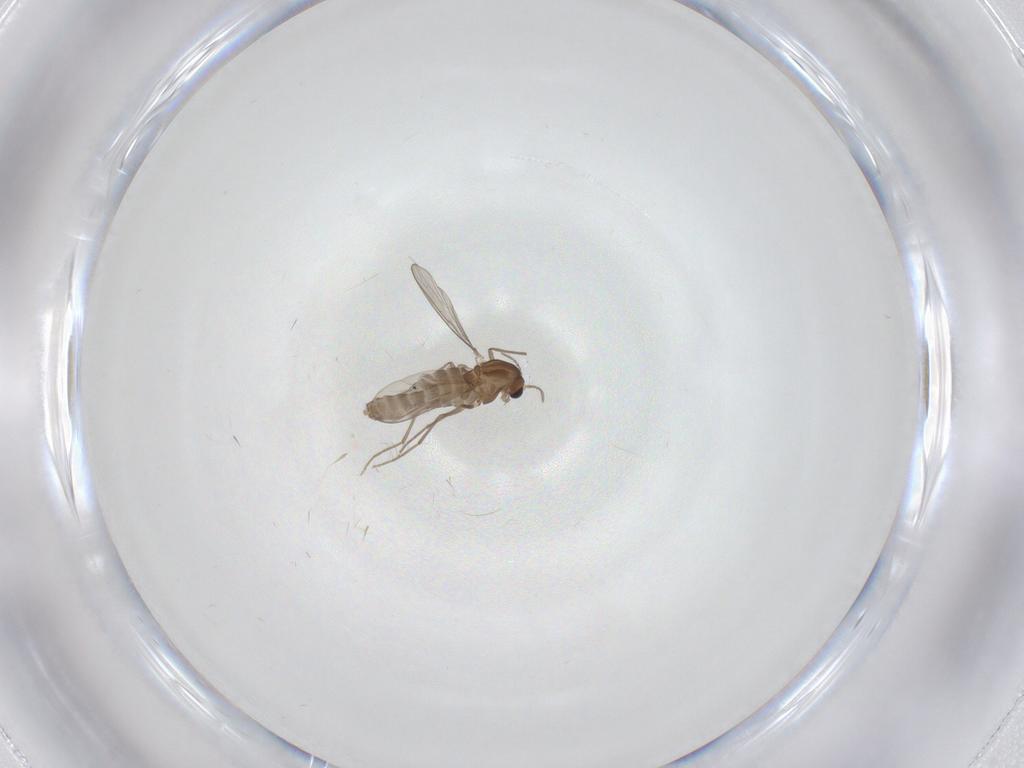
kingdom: Animalia
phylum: Arthropoda
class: Insecta
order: Diptera
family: Chironomidae
